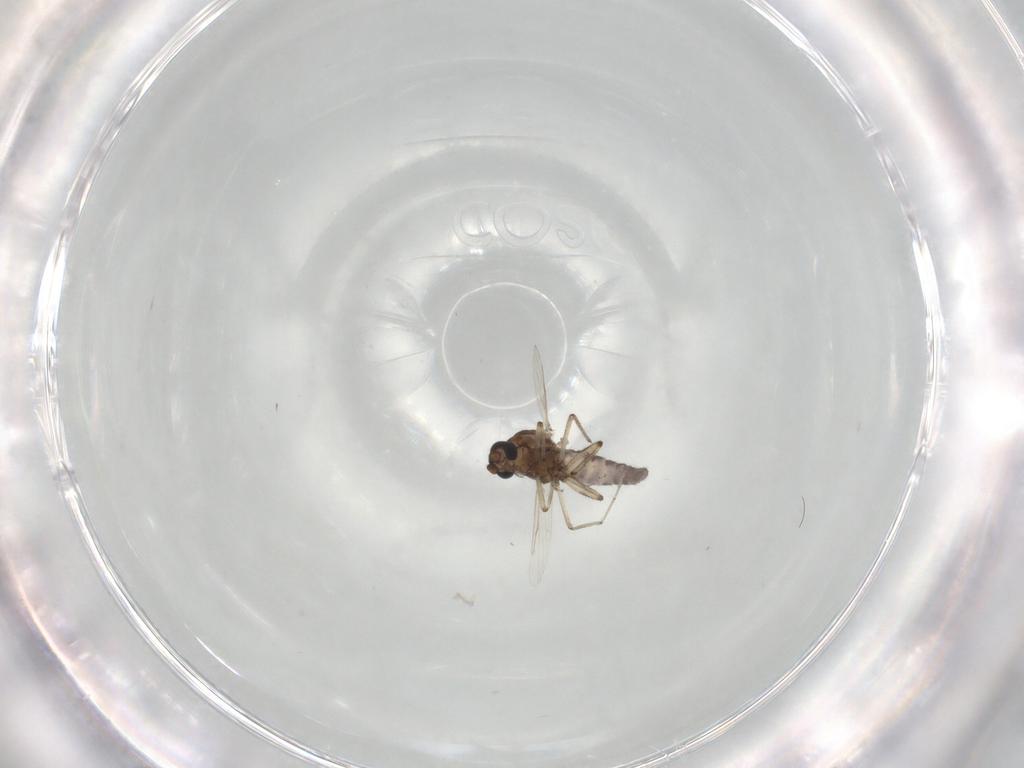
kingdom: Animalia
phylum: Arthropoda
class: Insecta
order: Diptera
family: Ceratopogonidae
